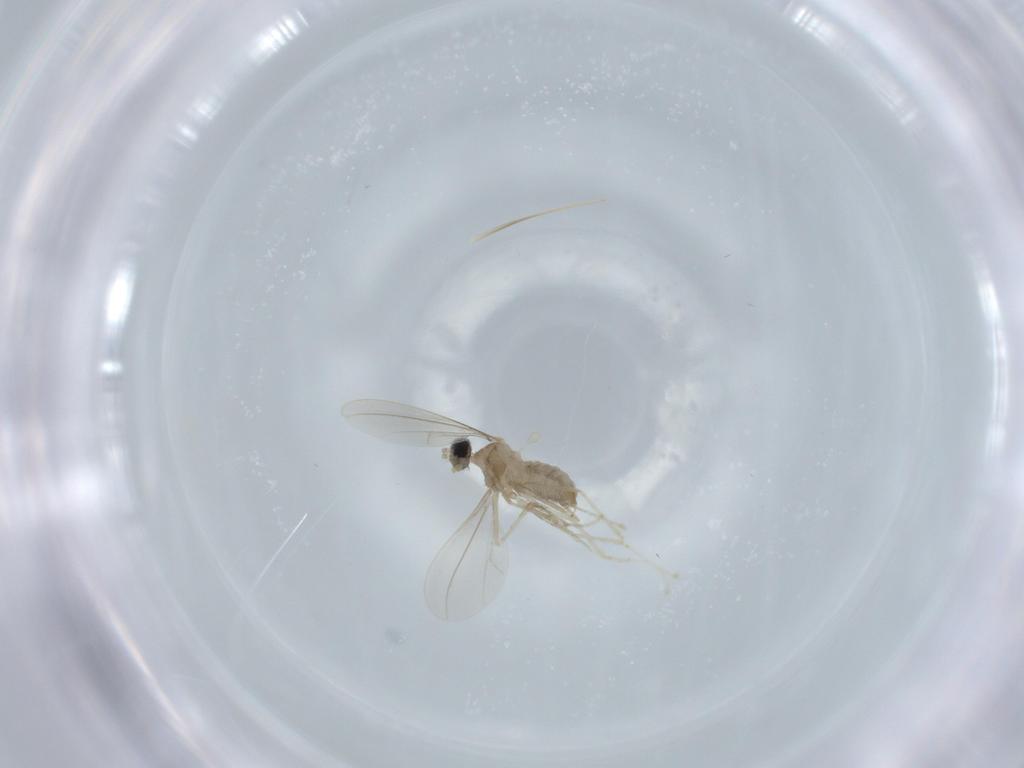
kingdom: Animalia
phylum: Arthropoda
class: Insecta
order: Diptera
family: Cecidomyiidae
